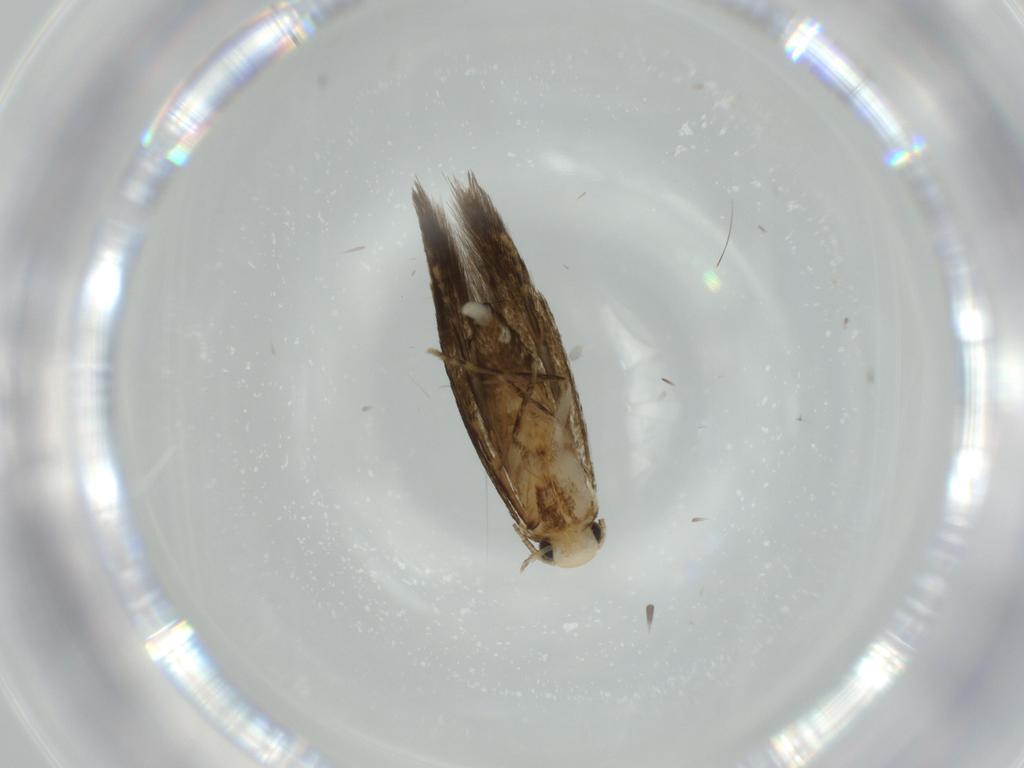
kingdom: Animalia
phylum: Arthropoda
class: Insecta
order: Lepidoptera
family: Tineidae
